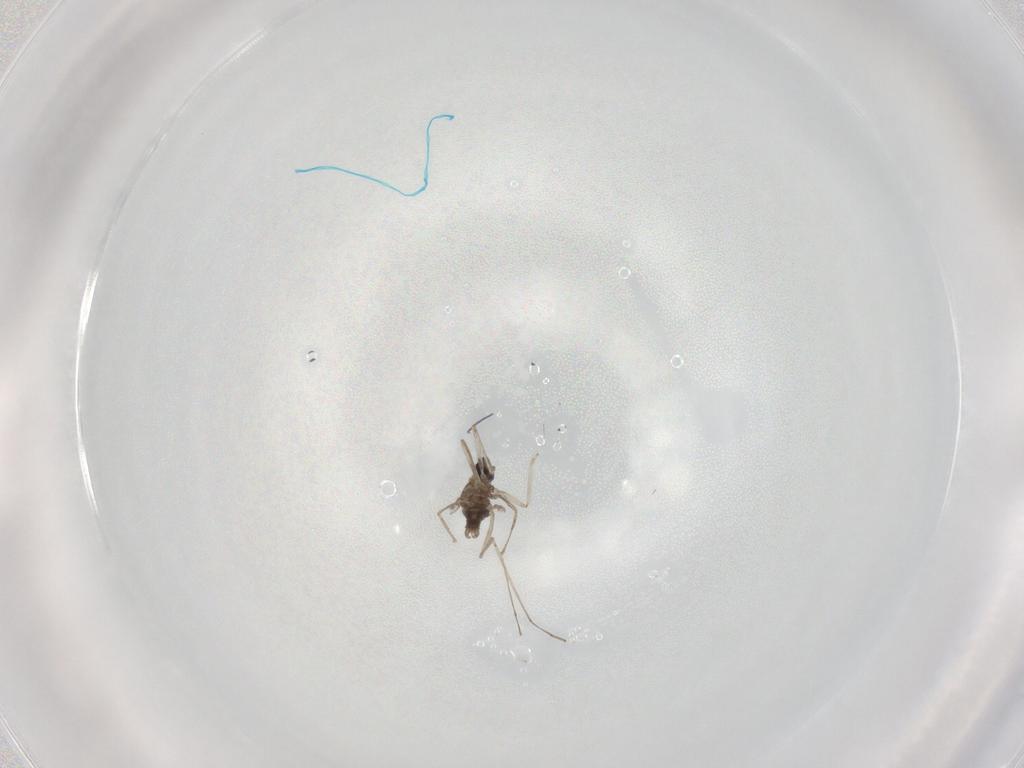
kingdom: Animalia
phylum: Arthropoda
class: Insecta
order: Diptera
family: Cecidomyiidae
